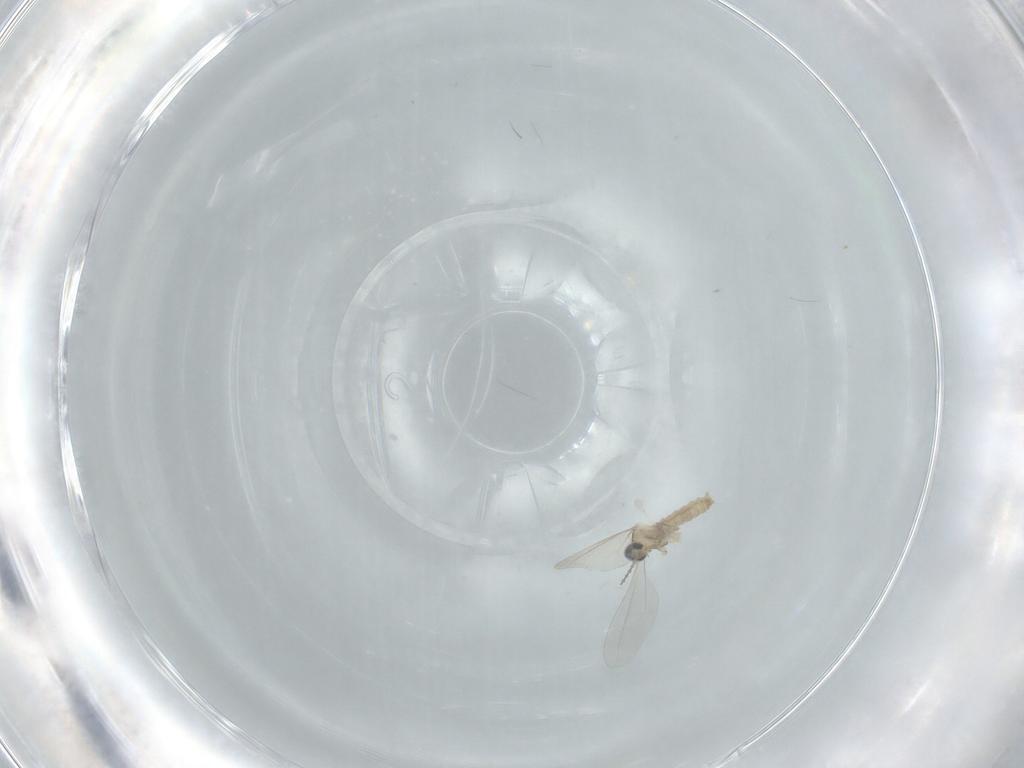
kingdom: Animalia
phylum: Arthropoda
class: Insecta
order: Diptera
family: Cecidomyiidae
